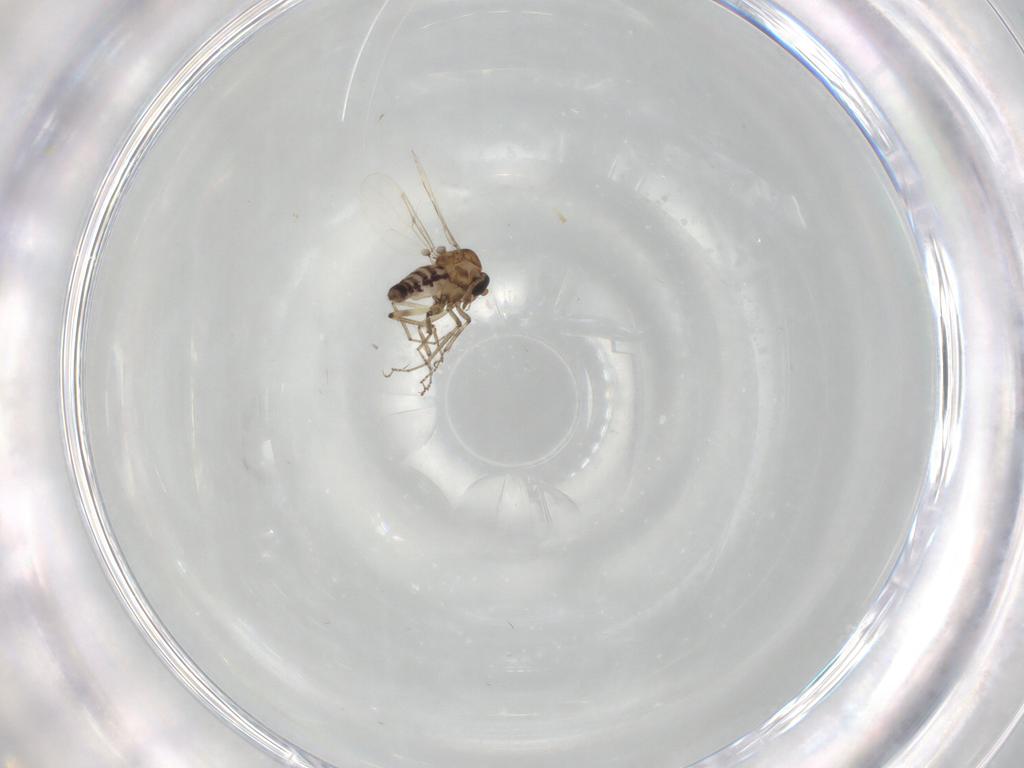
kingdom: Animalia
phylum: Arthropoda
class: Insecta
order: Diptera
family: Ceratopogonidae
